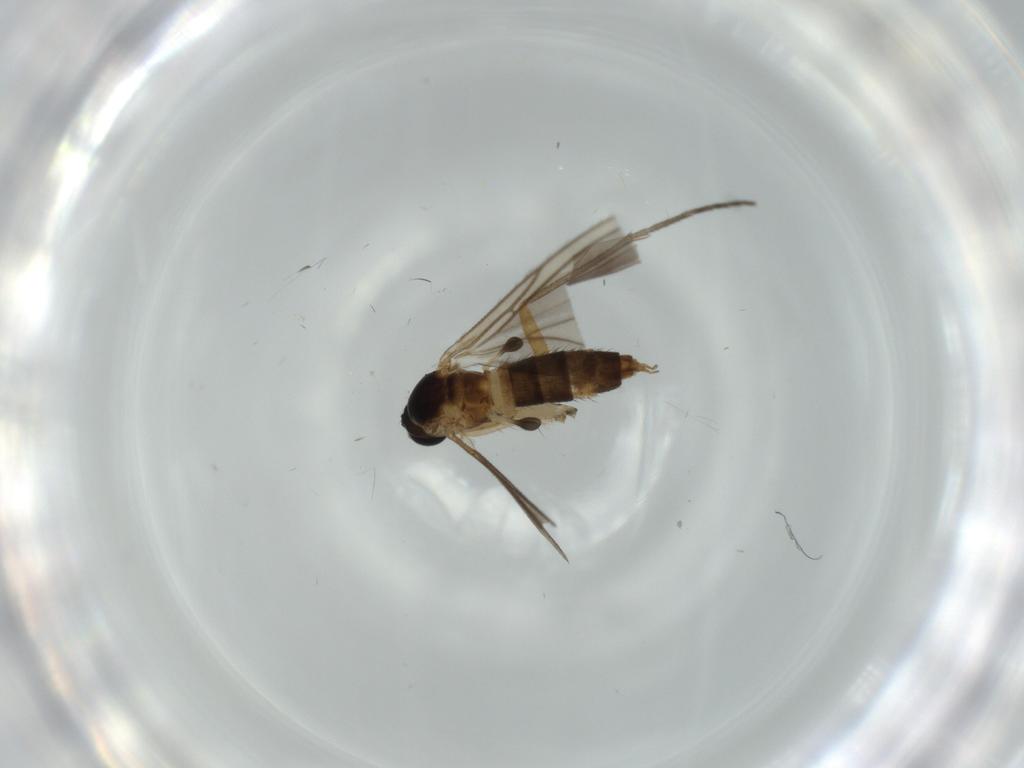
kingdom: Animalia
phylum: Arthropoda
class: Insecta
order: Diptera
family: Sciaridae
